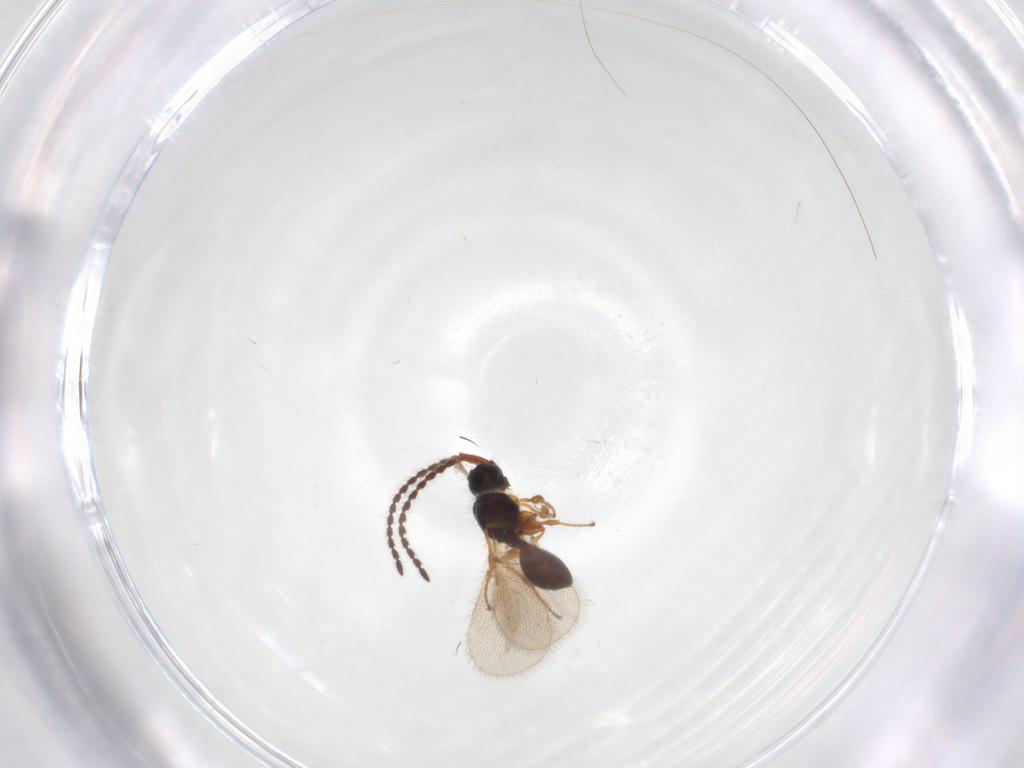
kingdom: Animalia
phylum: Arthropoda
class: Insecta
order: Hymenoptera
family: Diapriidae
